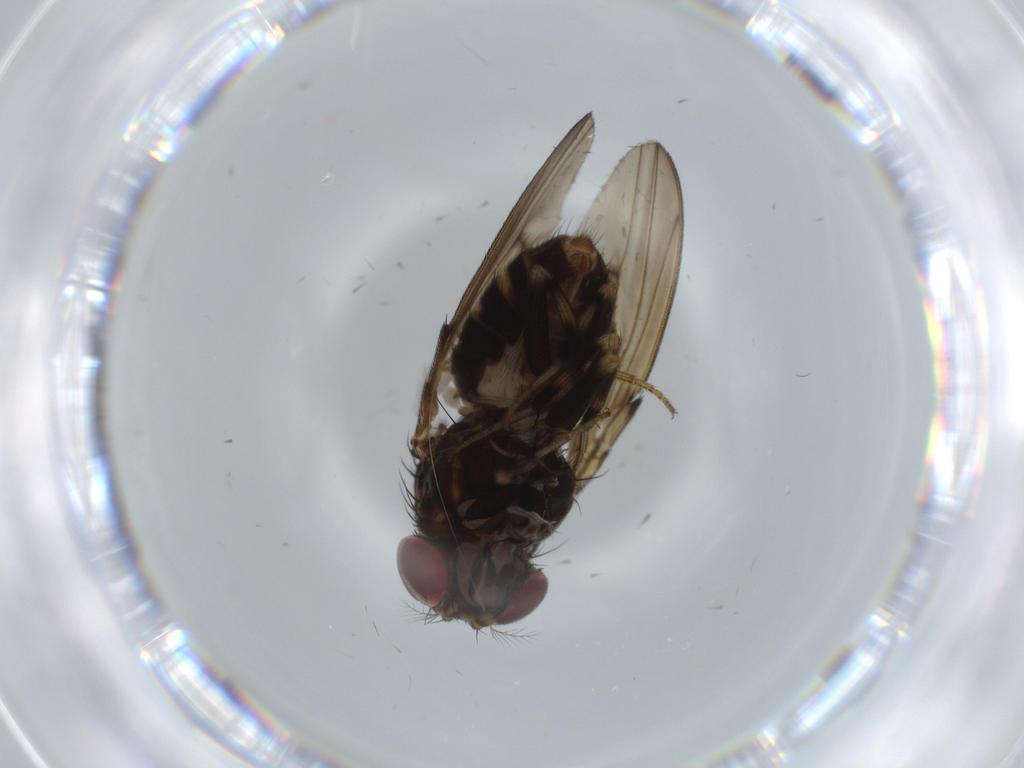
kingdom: Animalia
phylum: Arthropoda
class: Insecta
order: Diptera
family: Drosophilidae
